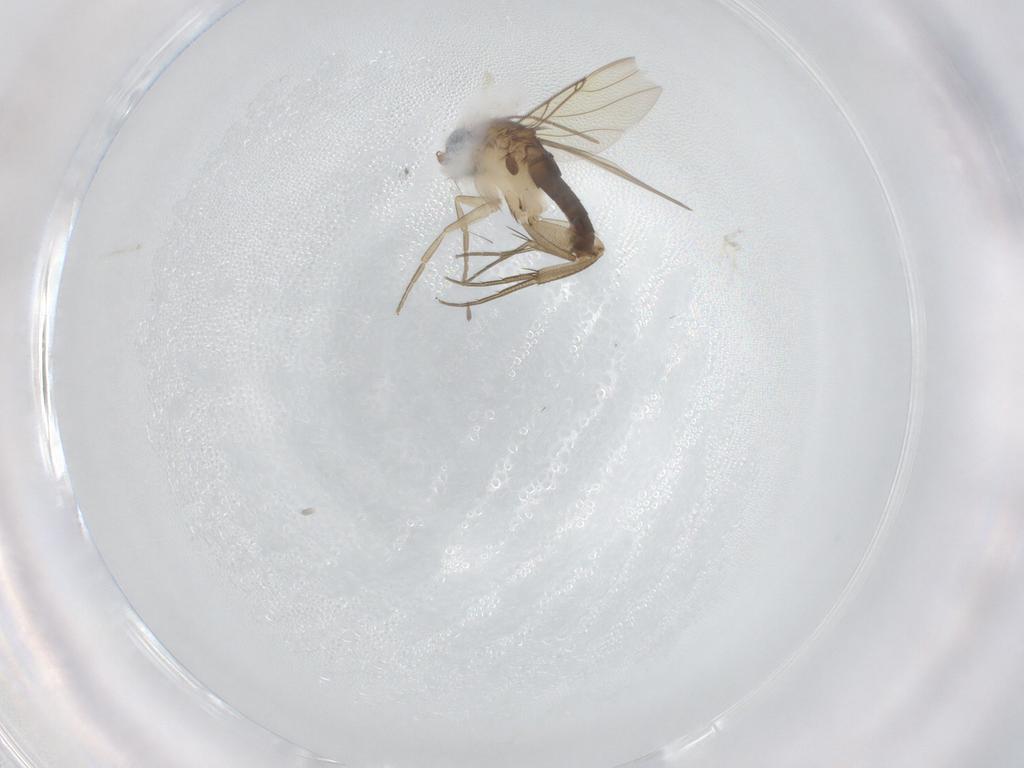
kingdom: Animalia
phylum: Arthropoda
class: Insecta
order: Diptera
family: Phoridae
